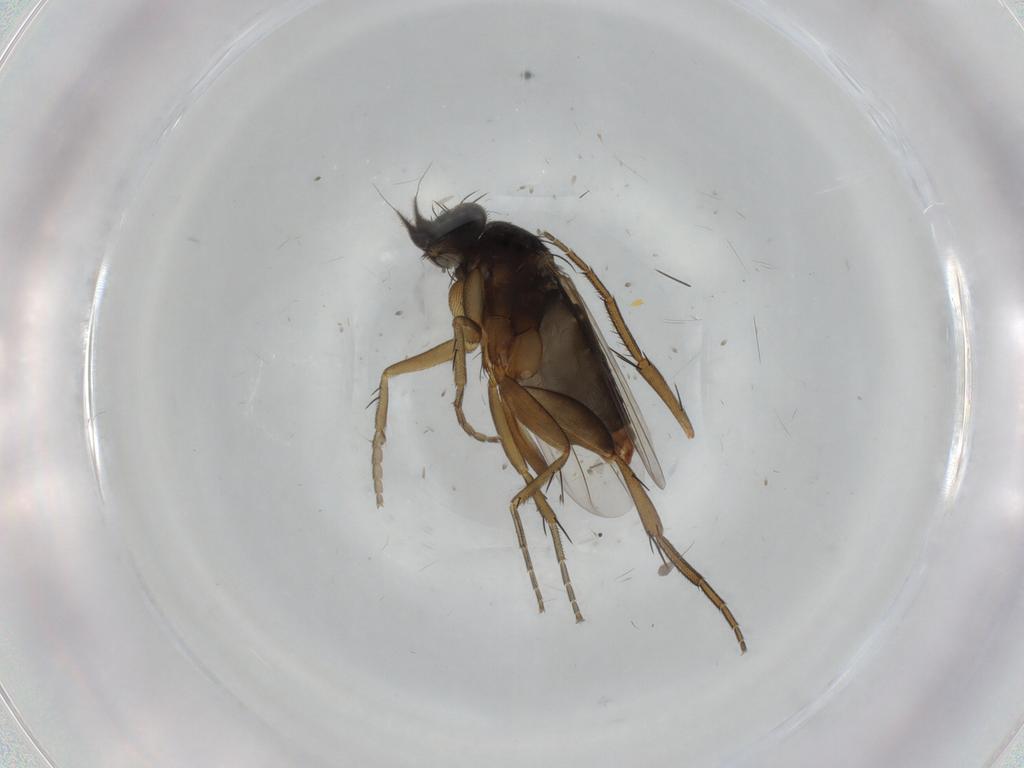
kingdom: Animalia
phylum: Arthropoda
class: Insecta
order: Diptera
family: Phoridae
